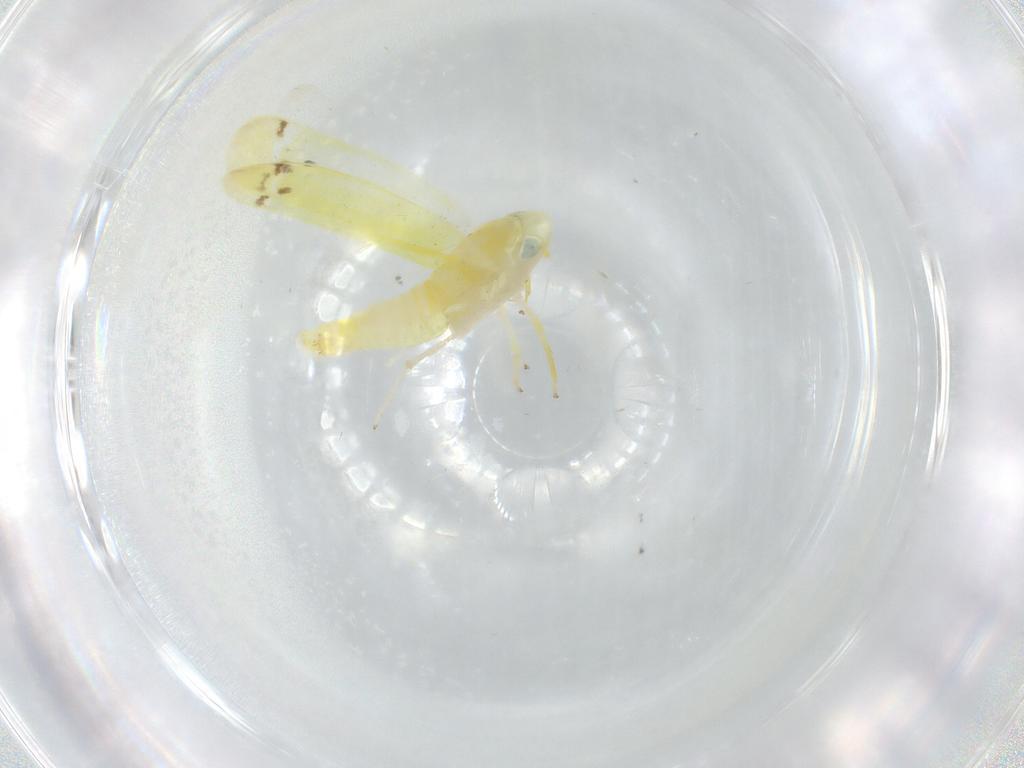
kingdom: Animalia
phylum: Arthropoda
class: Insecta
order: Hemiptera
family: Cicadellidae
